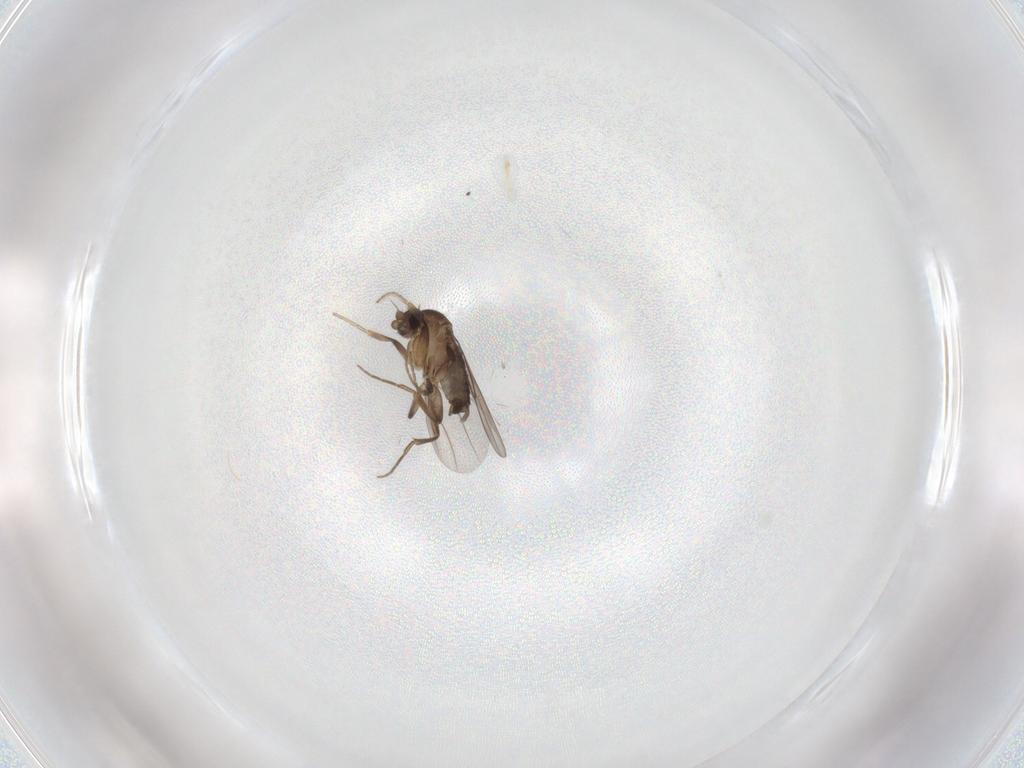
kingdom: Animalia
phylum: Arthropoda
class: Insecta
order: Diptera
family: Phoridae
